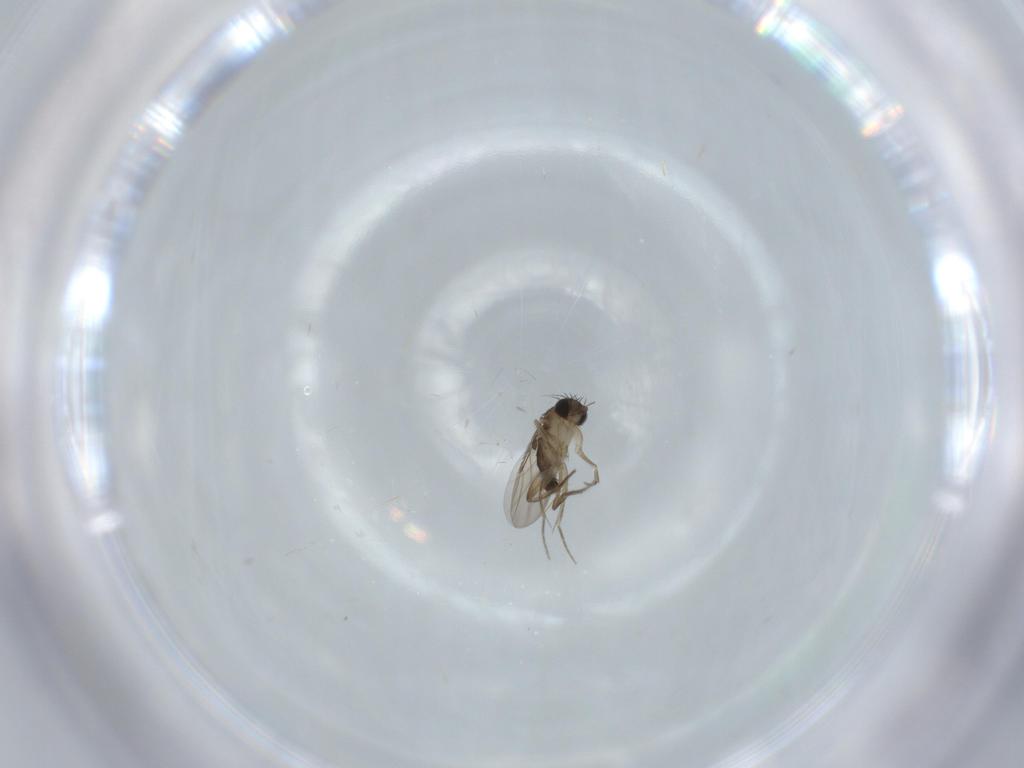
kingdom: Animalia
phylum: Arthropoda
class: Insecta
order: Diptera
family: Phoridae
